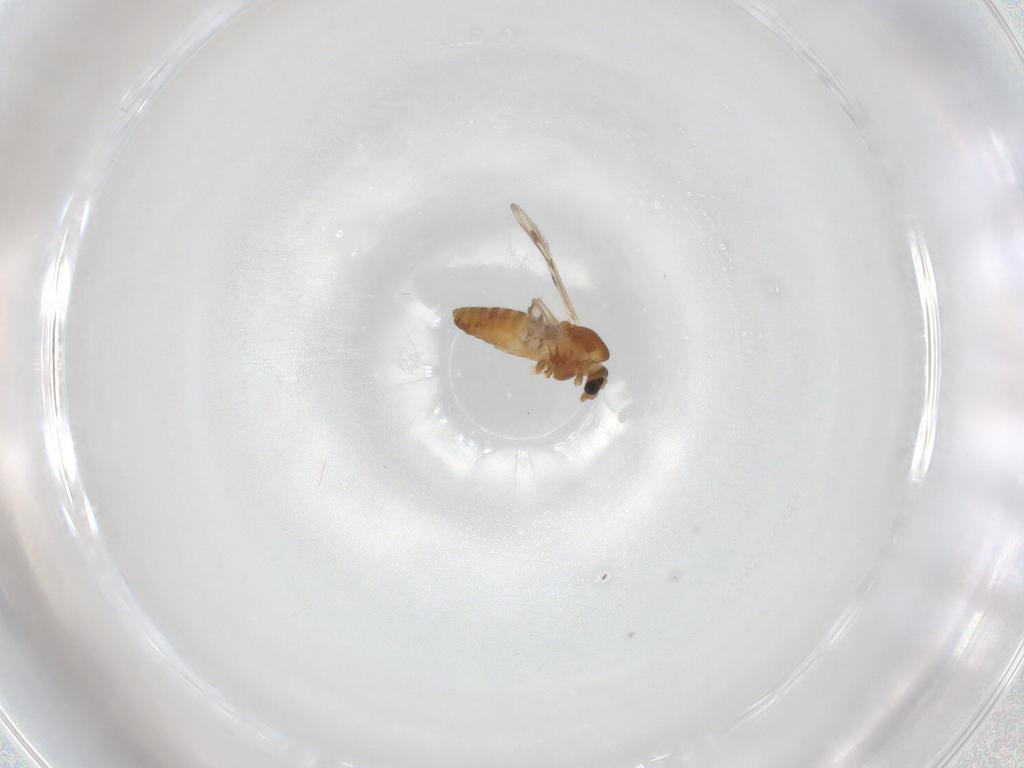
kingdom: Animalia
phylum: Arthropoda
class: Insecta
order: Diptera
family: Chironomidae
